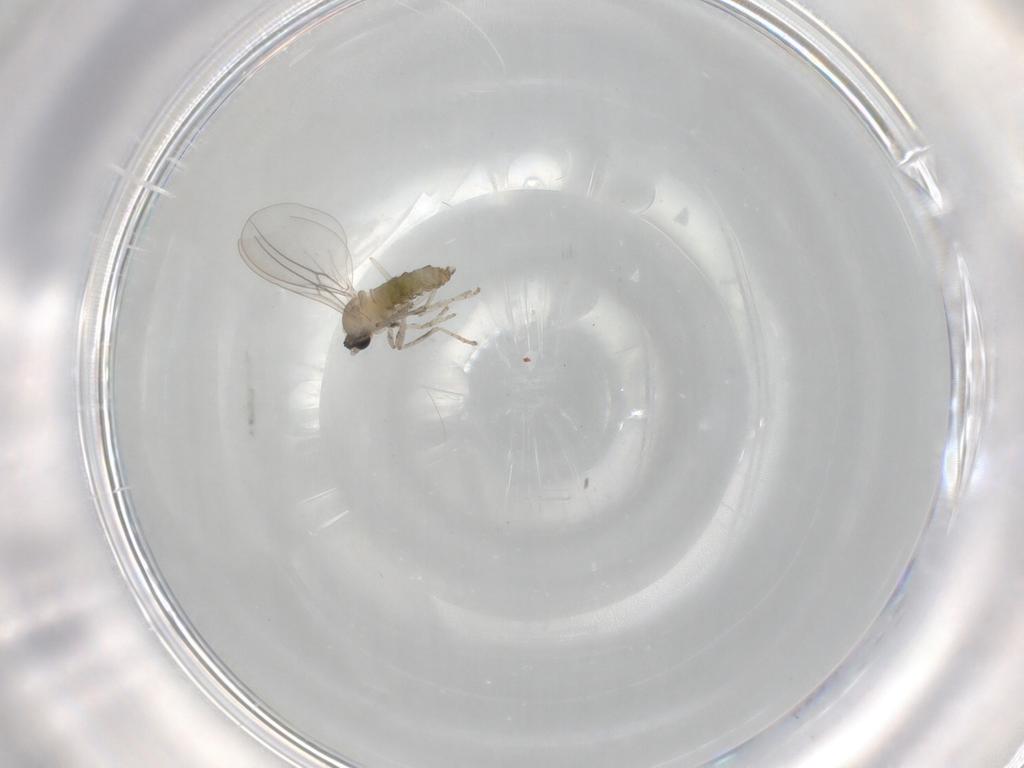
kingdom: Animalia
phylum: Arthropoda
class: Insecta
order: Diptera
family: Cecidomyiidae
